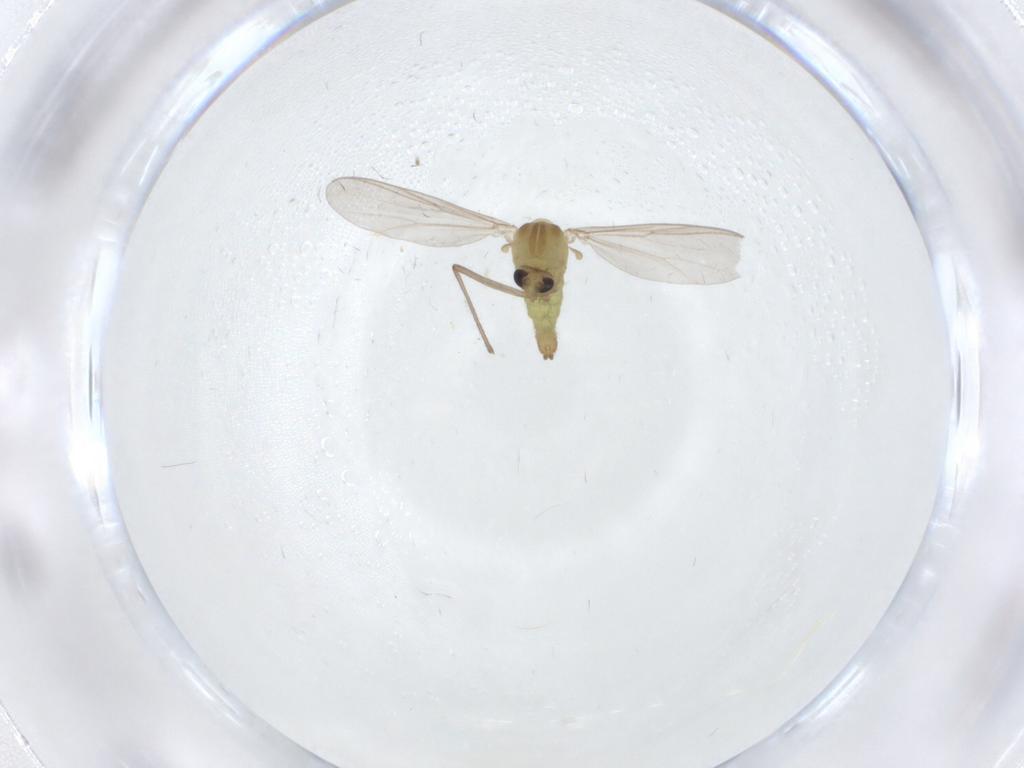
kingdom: Animalia
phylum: Arthropoda
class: Insecta
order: Diptera
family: Chironomidae
